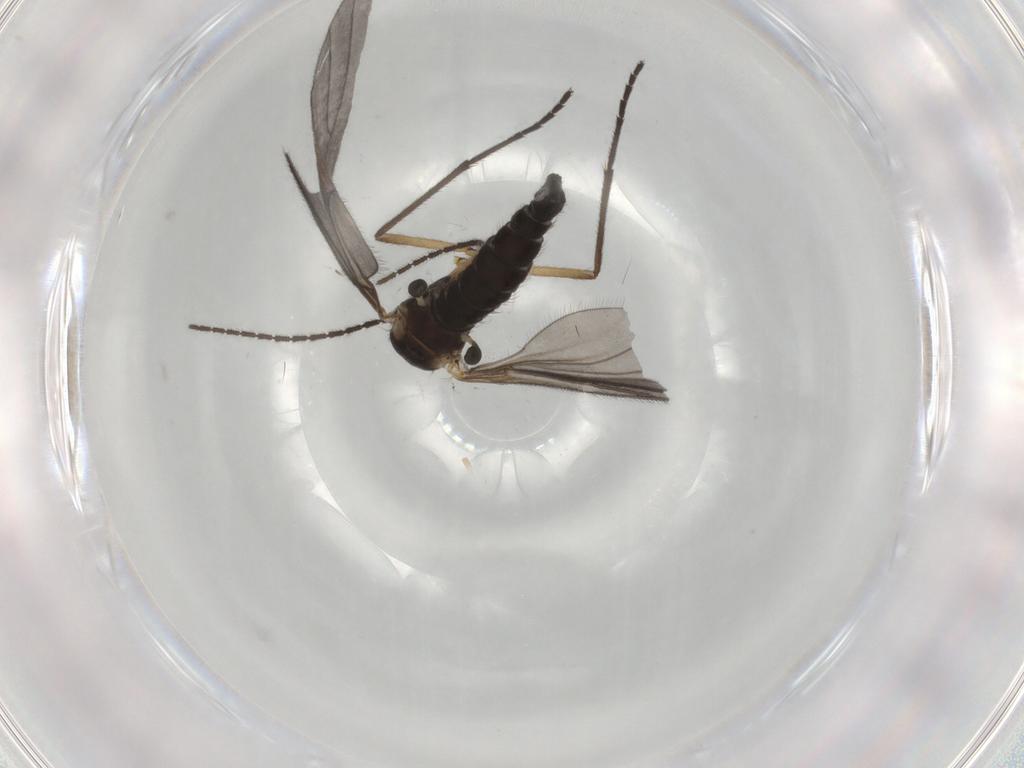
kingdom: Animalia
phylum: Arthropoda
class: Insecta
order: Diptera
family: Sciaridae
